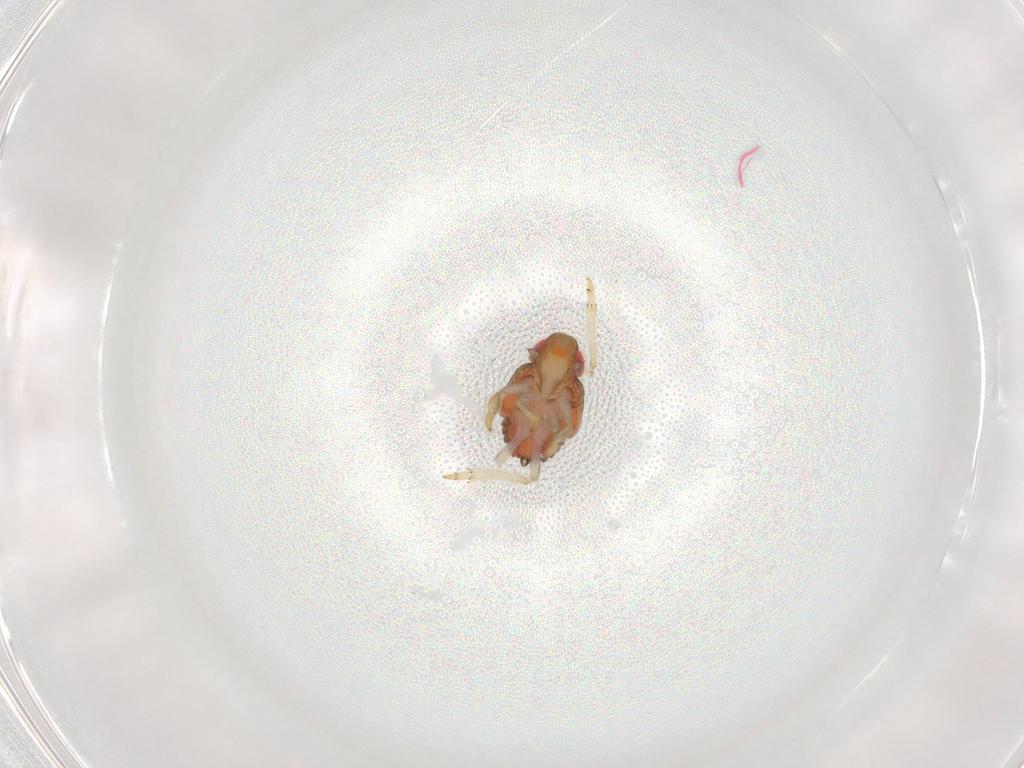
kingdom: Animalia
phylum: Arthropoda
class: Insecta
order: Hemiptera
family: Issidae
